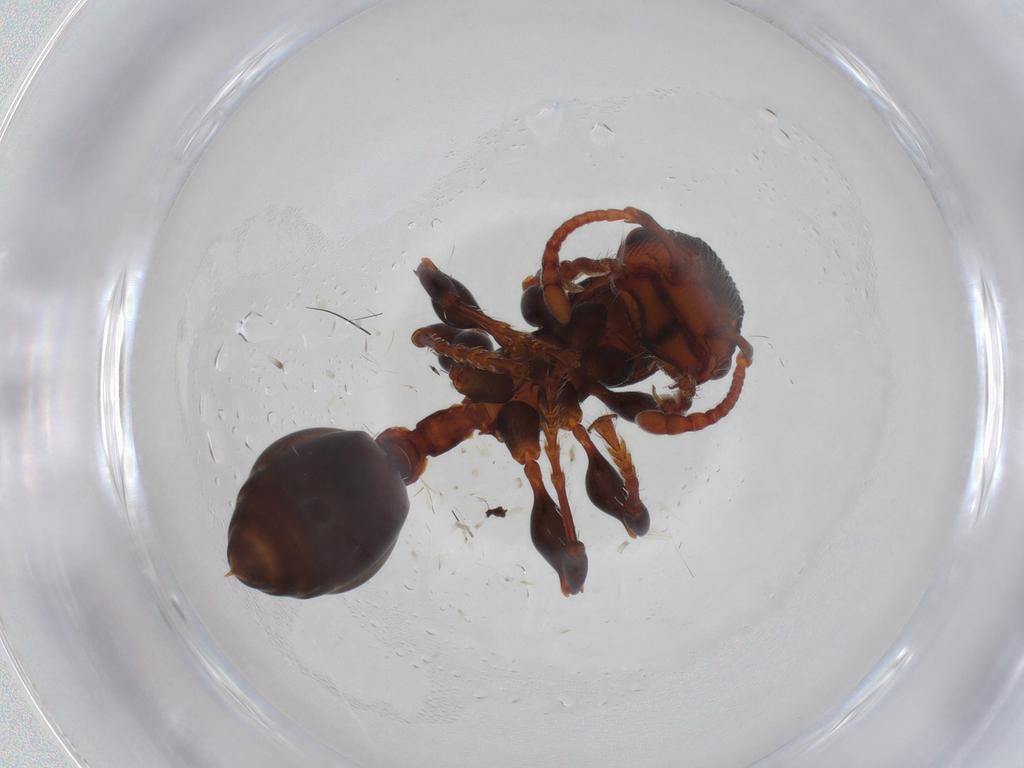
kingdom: Animalia
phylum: Arthropoda
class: Insecta
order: Hymenoptera
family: Formicidae
